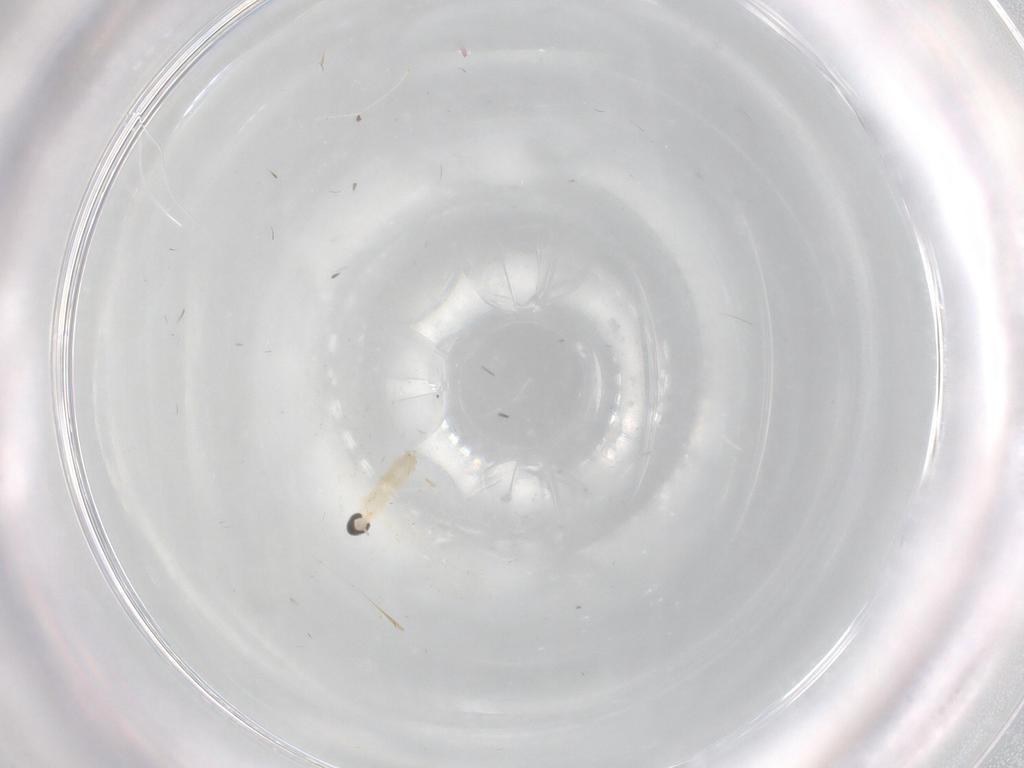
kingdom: Animalia
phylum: Arthropoda
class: Insecta
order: Diptera
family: Cecidomyiidae
